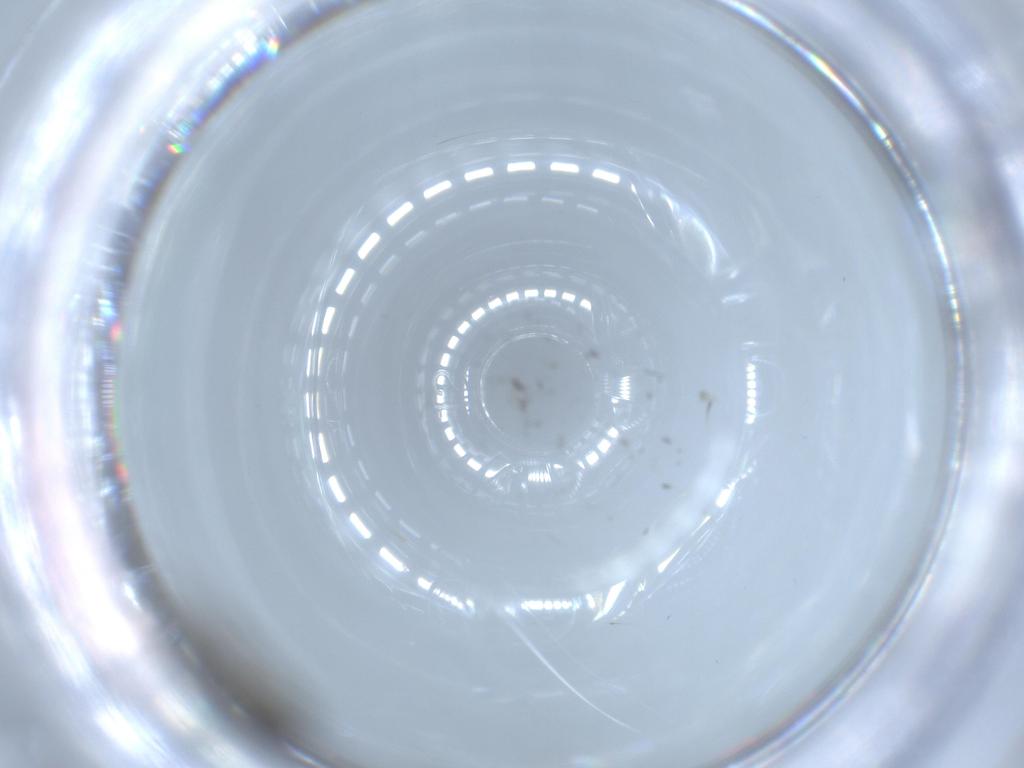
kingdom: Animalia
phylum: Arthropoda
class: Insecta
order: Diptera
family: Sciaridae
